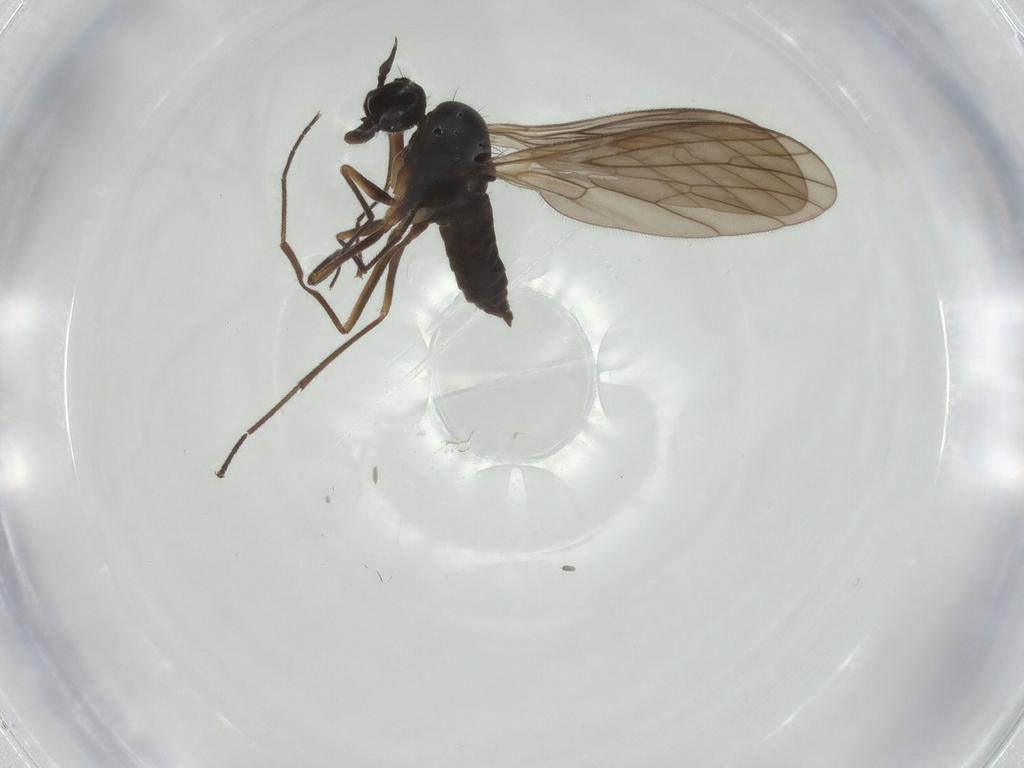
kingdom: Animalia
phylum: Arthropoda
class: Insecta
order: Diptera
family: Empididae
